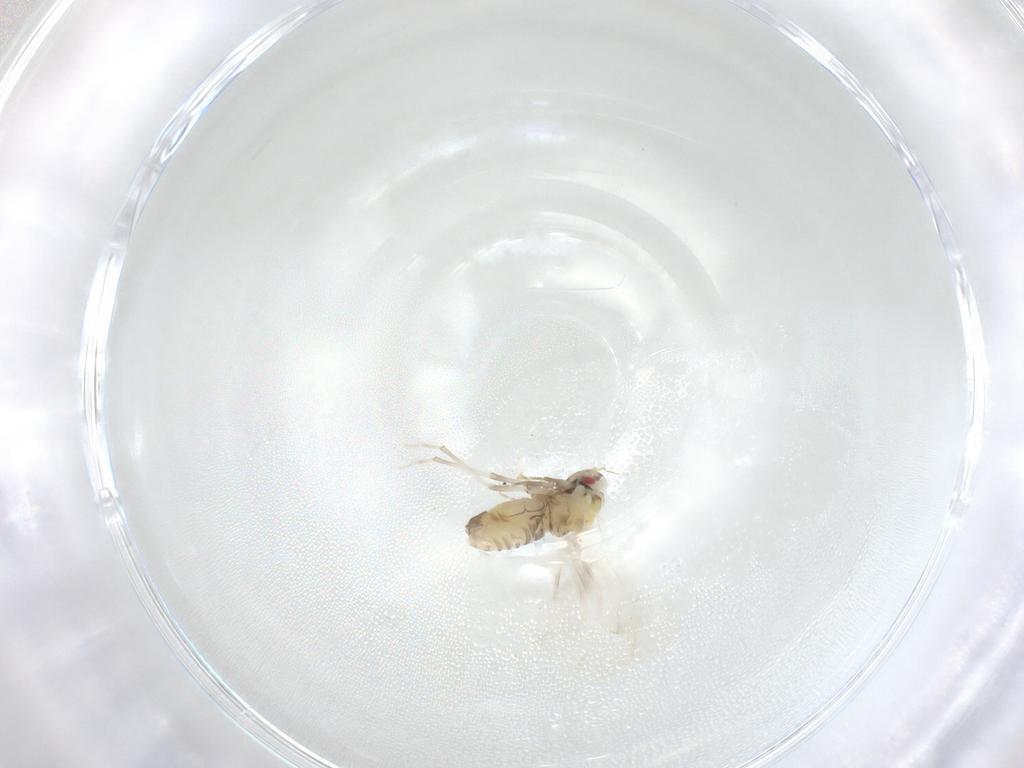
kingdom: Animalia
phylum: Arthropoda
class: Insecta
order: Hemiptera
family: Aleyrodidae
